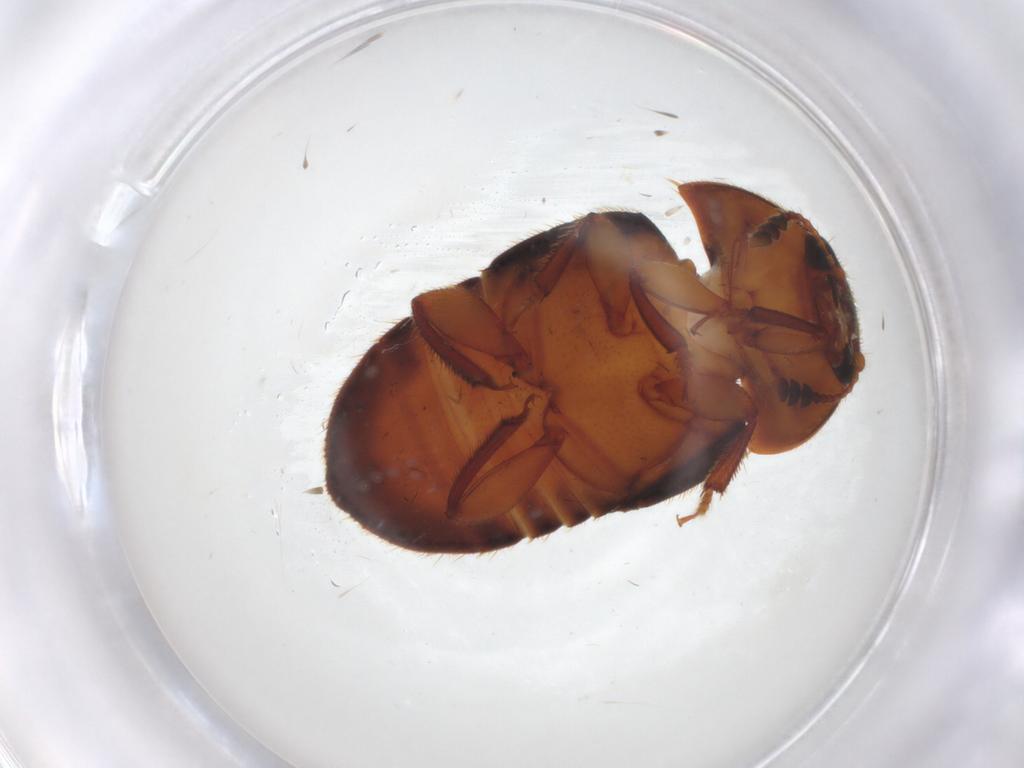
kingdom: Animalia
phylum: Arthropoda
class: Insecta
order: Coleoptera
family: Nitidulidae
